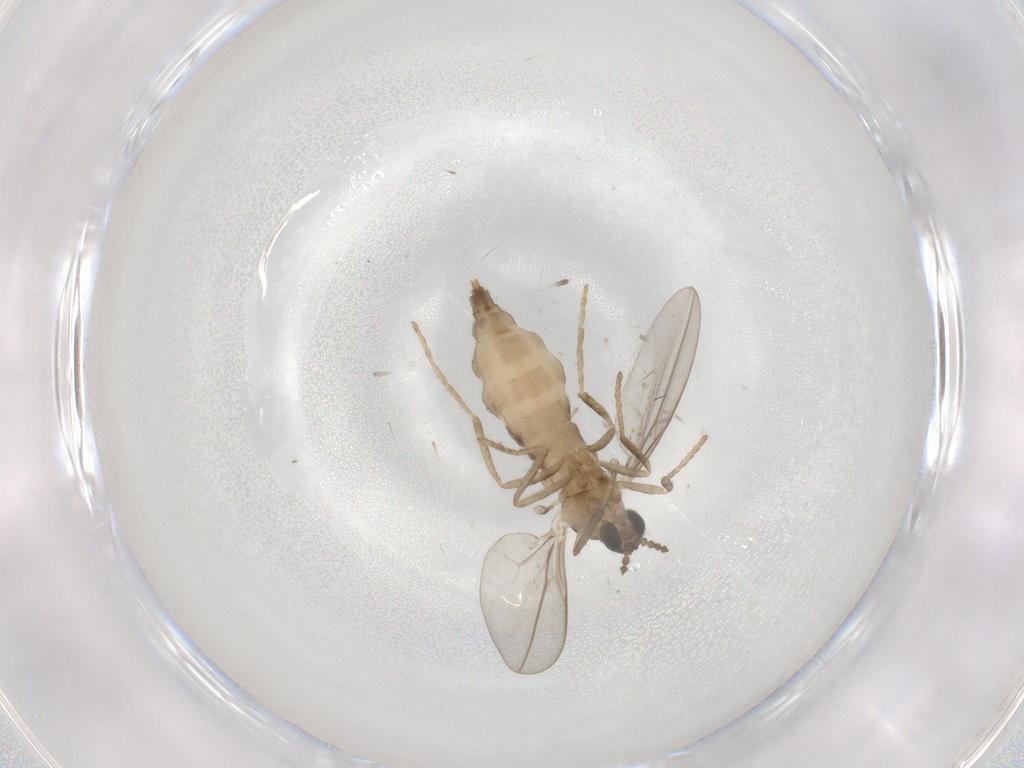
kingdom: Animalia
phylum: Arthropoda
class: Insecta
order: Diptera
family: Cecidomyiidae
